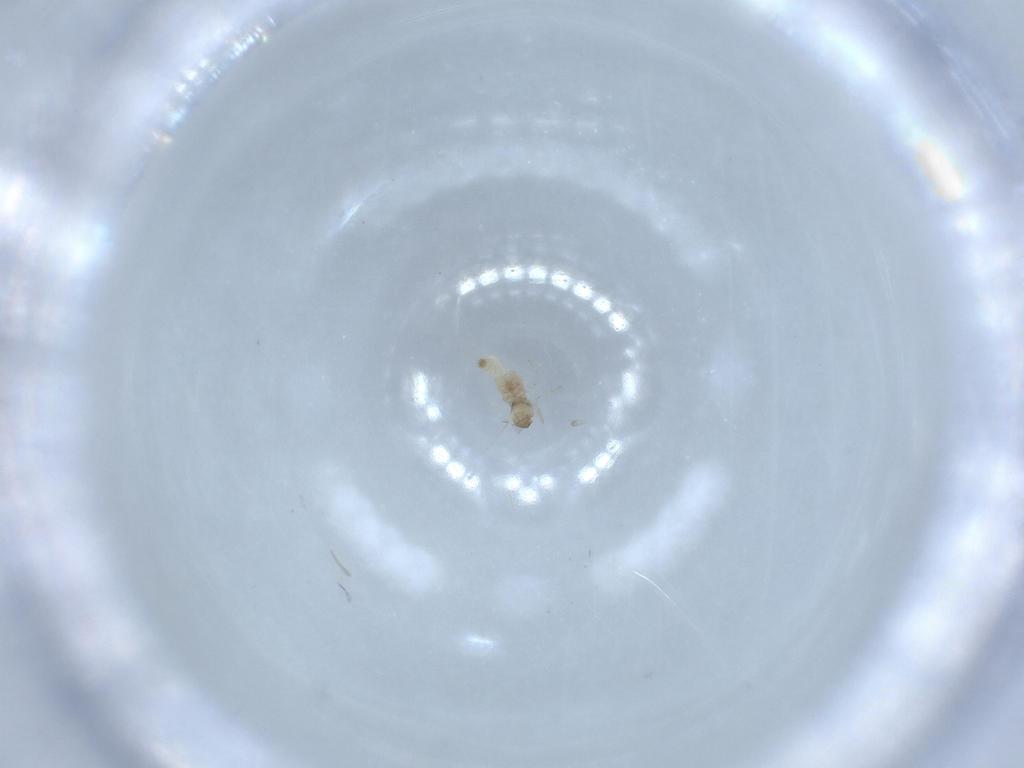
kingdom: Animalia
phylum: Arthropoda
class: Insecta
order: Diptera
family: Cecidomyiidae
